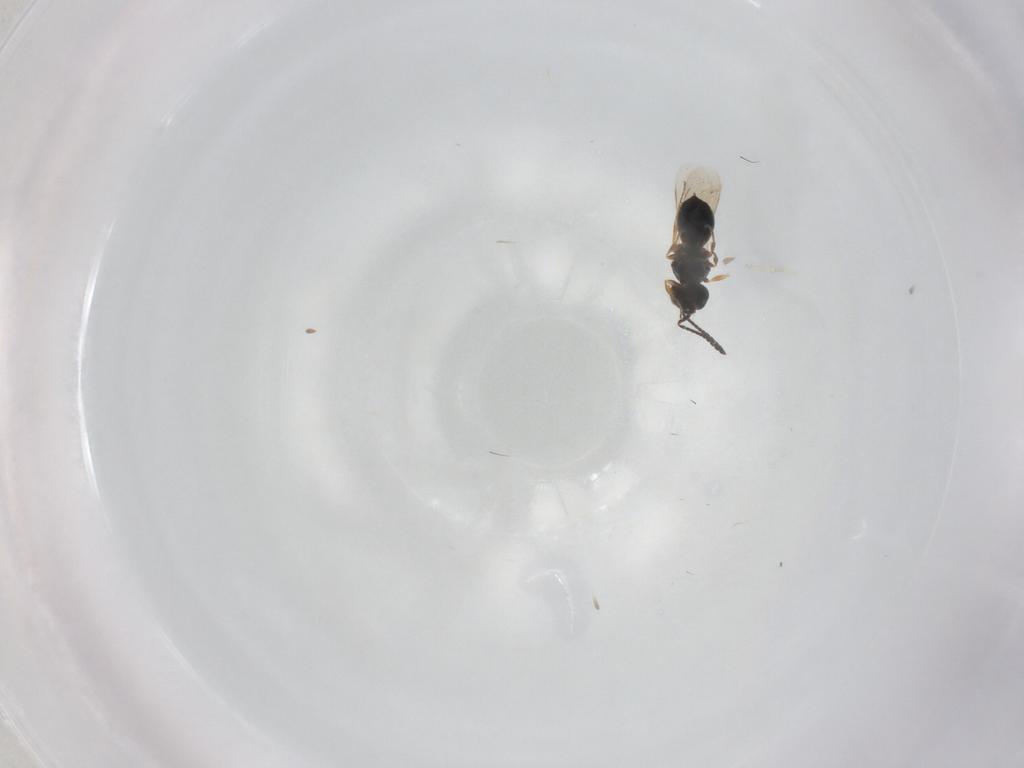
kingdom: Animalia
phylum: Arthropoda
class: Insecta
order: Hymenoptera
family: Scelionidae
